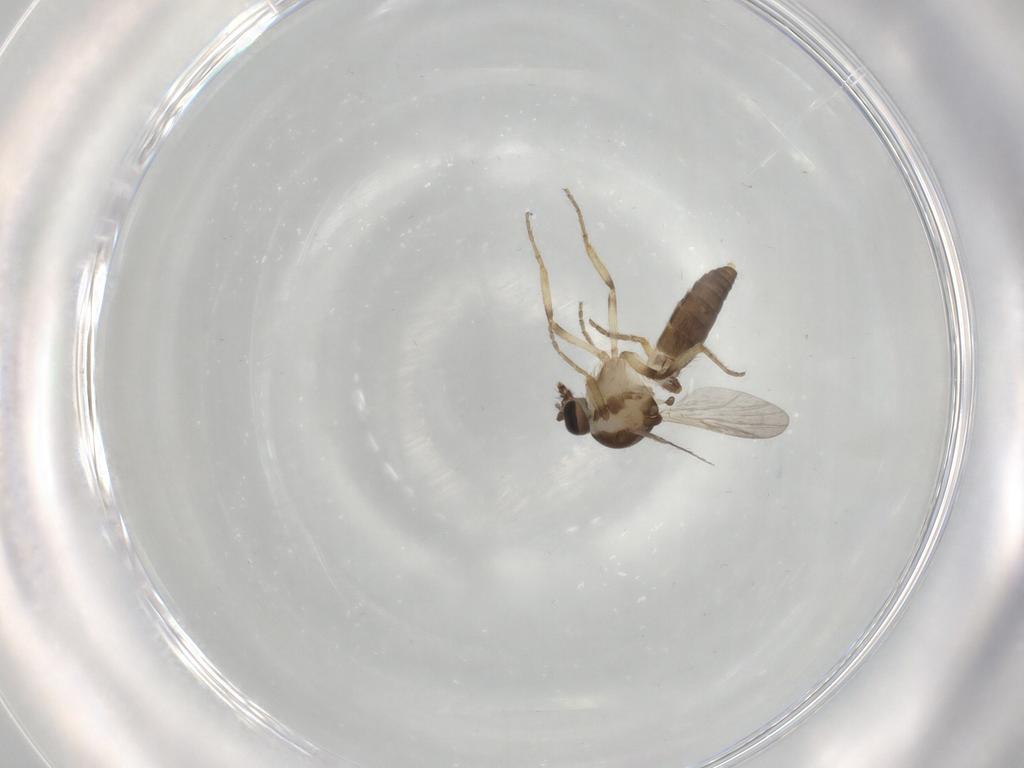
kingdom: Animalia
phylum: Arthropoda
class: Insecta
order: Diptera
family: Ceratopogonidae
